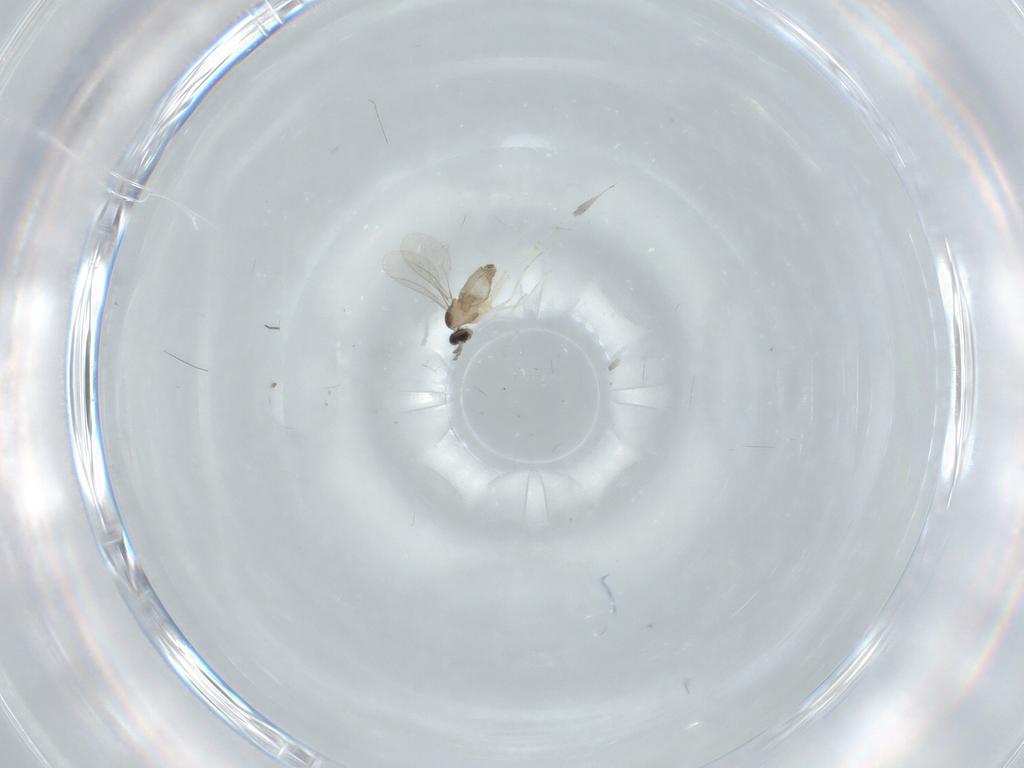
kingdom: Animalia
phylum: Arthropoda
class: Insecta
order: Diptera
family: Cecidomyiidae
